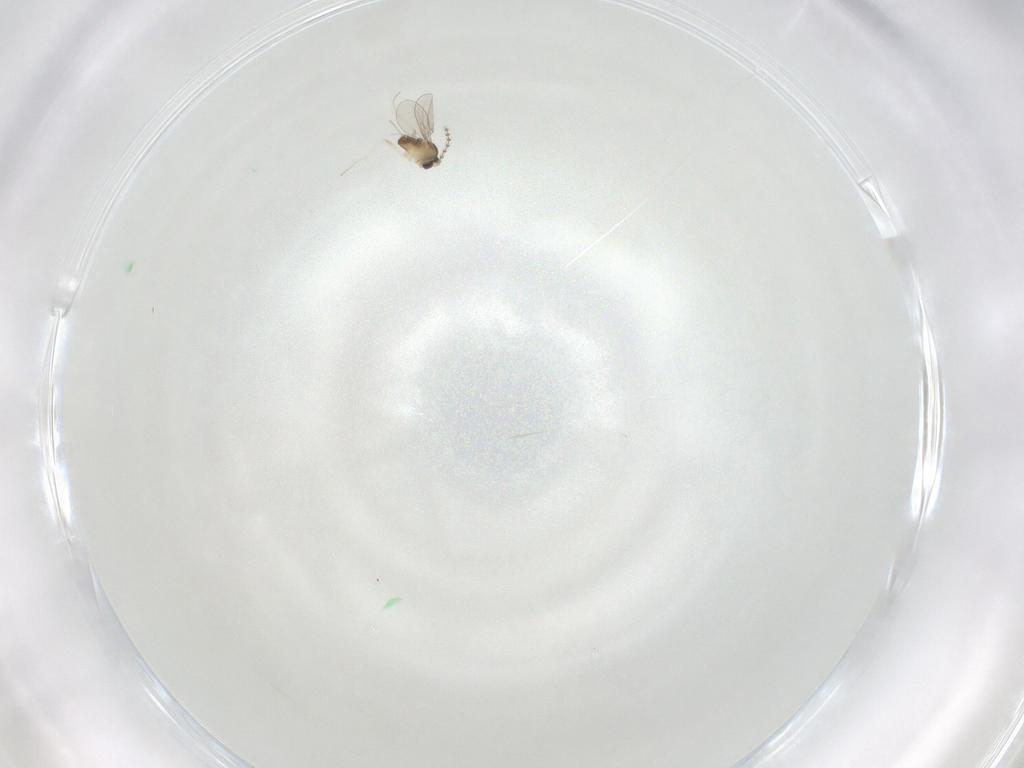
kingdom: Animalia
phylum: Arthropoda
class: Insecta
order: Diptera
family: Cecidomyiidae
